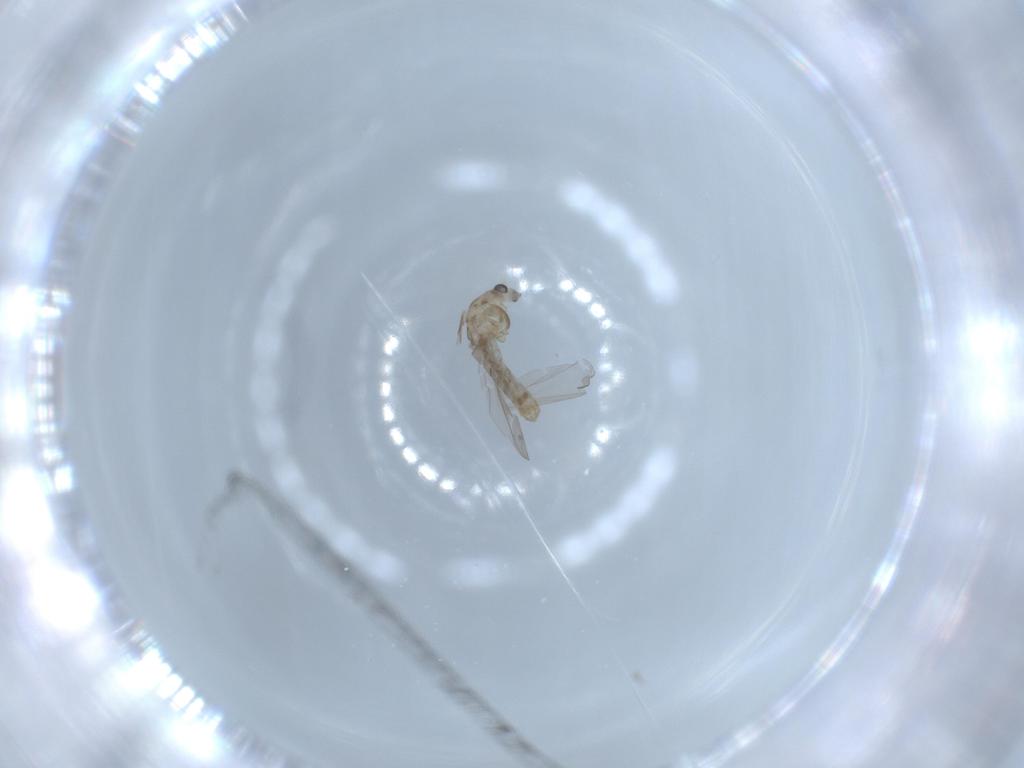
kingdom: Animalia
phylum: Arthropoda
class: Insecta
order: Diptera
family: Chironomidae
